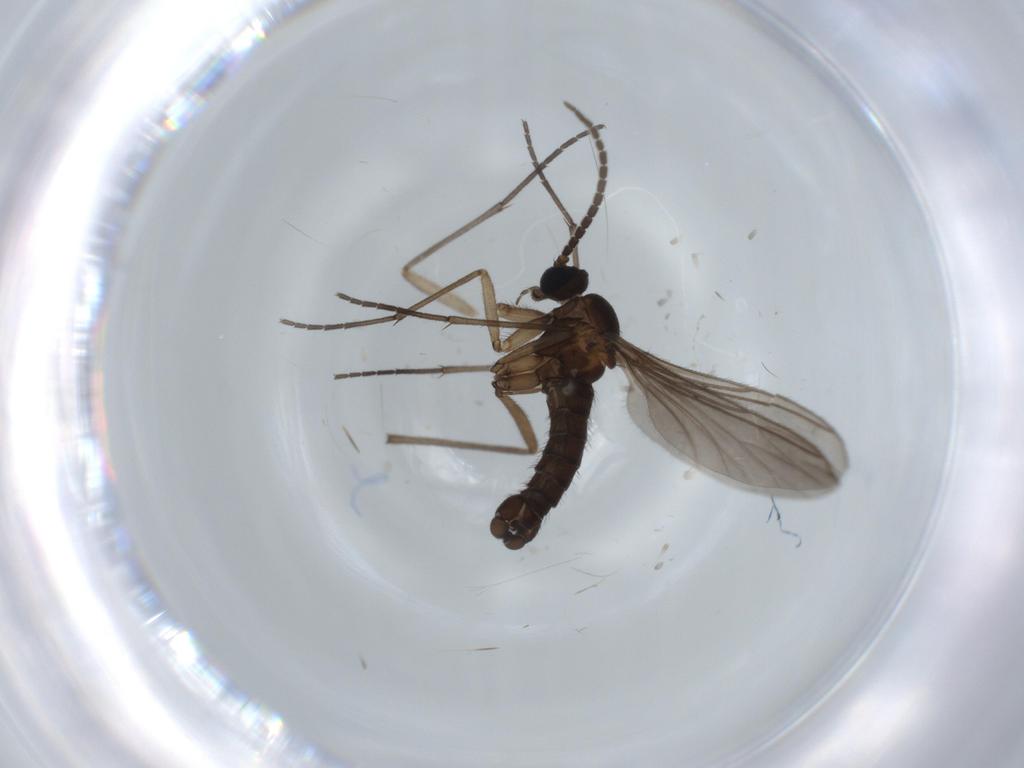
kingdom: Animalia
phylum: Arthropoda
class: Insecta
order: Diptera
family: Sciaridae
